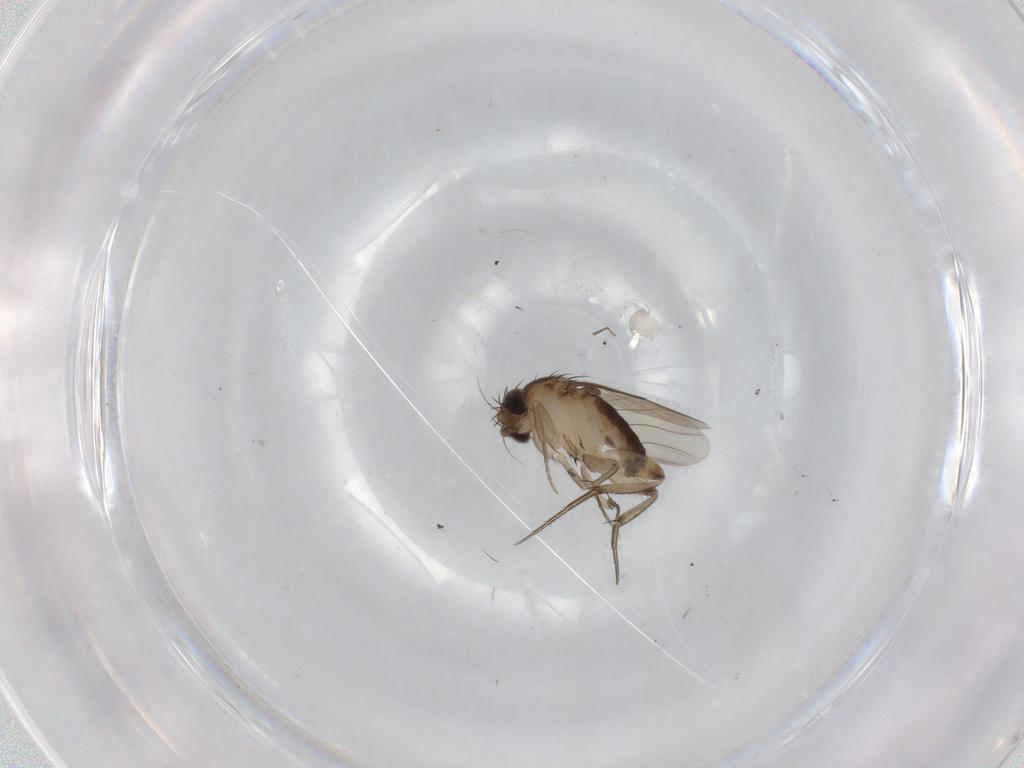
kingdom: Animalia
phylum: Arthropoda
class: Insecta
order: Diptera
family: Phoridae
